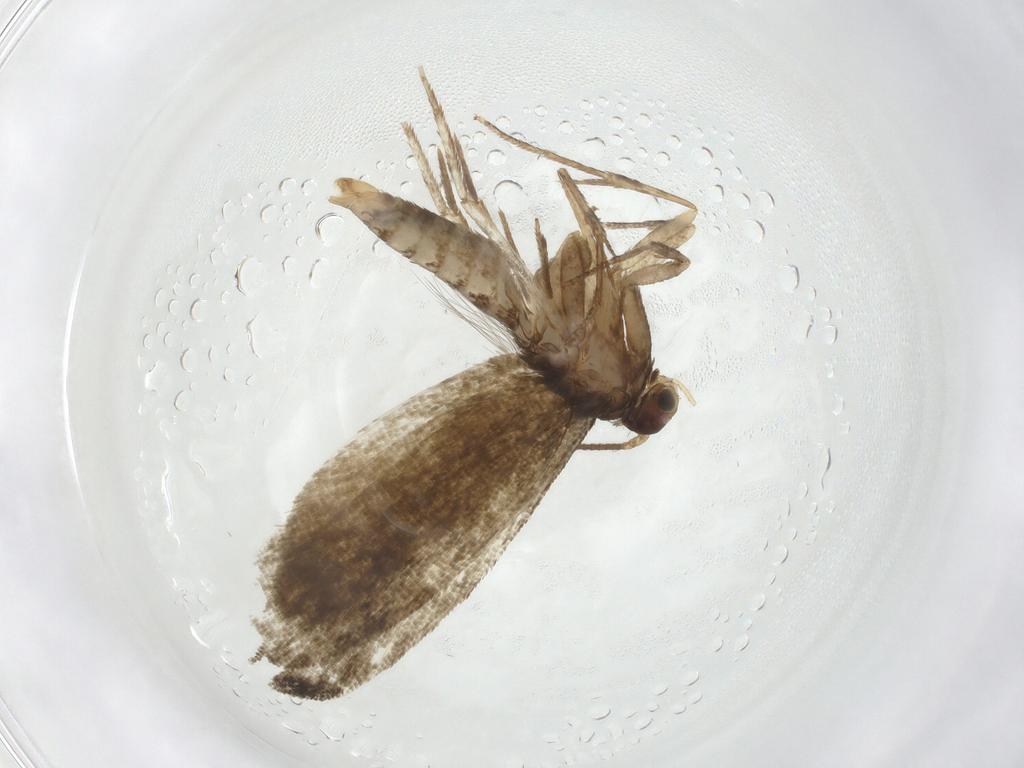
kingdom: Animalia
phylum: Arthropoda
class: Insecta
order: Lepidoptera
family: Tineidae
